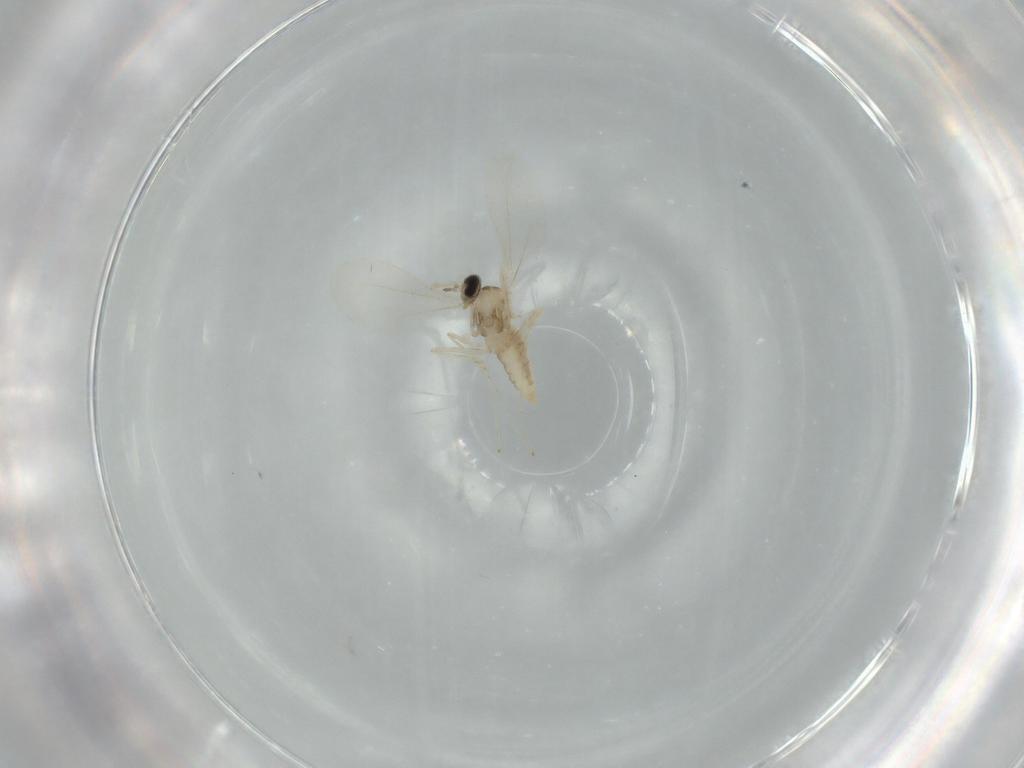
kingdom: Animalia
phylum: Arthropoda
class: Insecta
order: Diptera
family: Cecidomyiidae
